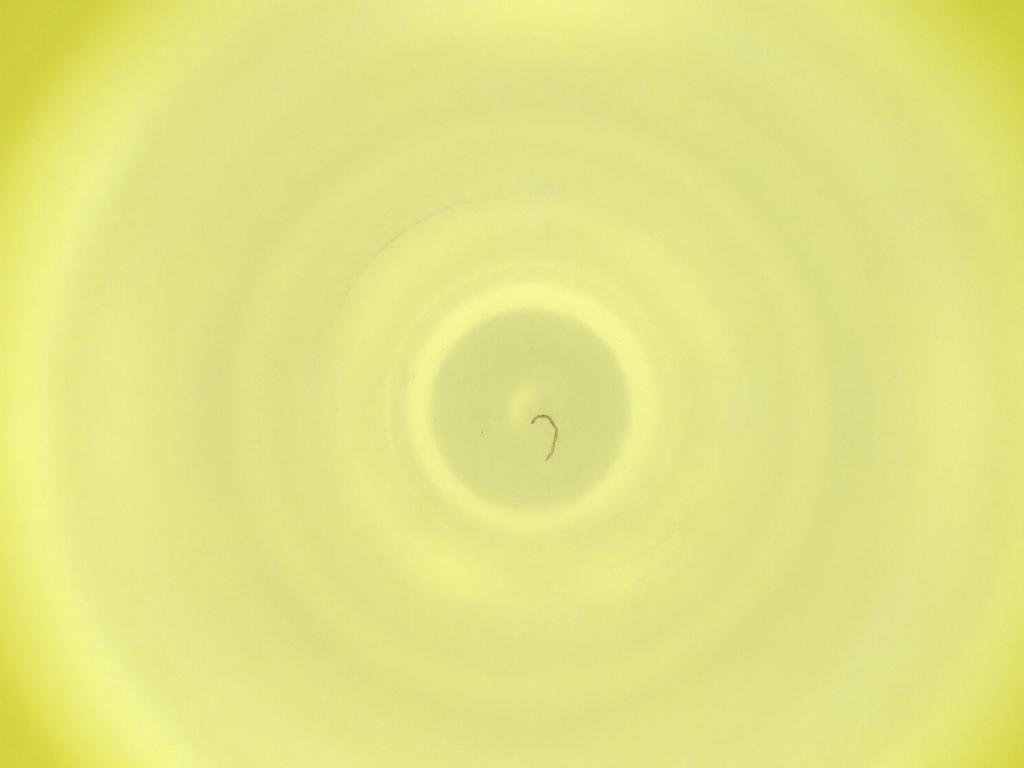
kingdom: Animalia
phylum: Arthropoda
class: Insecta
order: Diptera
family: Cecidomyiidae
